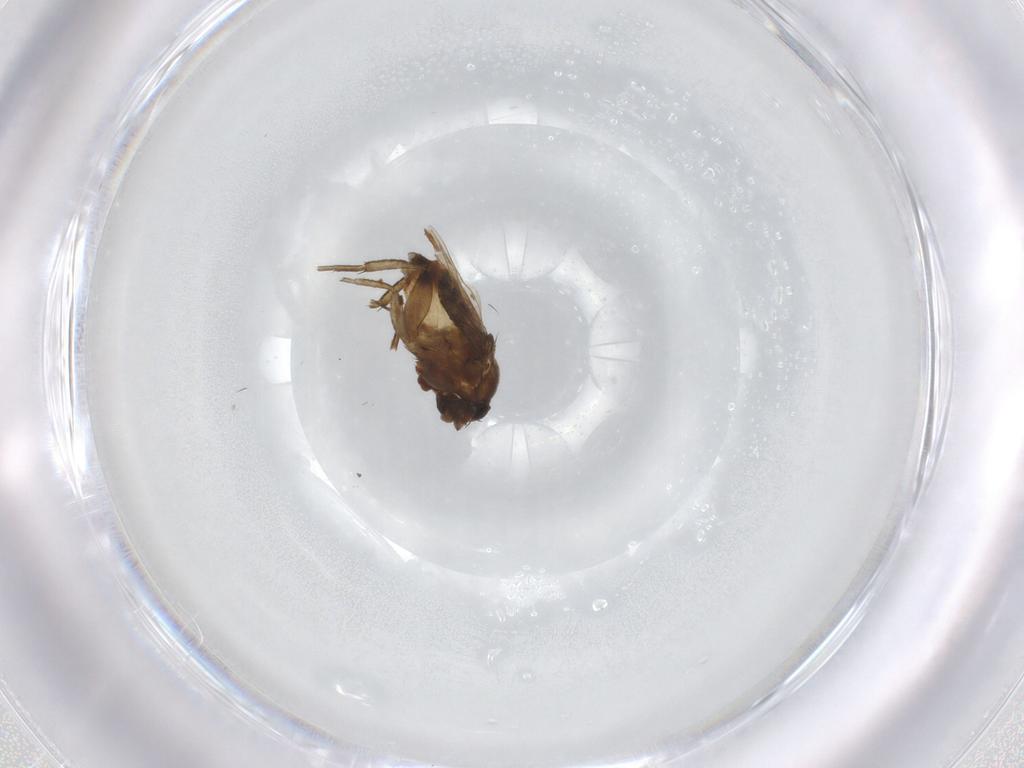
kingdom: Animalia
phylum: Arthropoda
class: Insecta
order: Diptera
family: Phoridae
